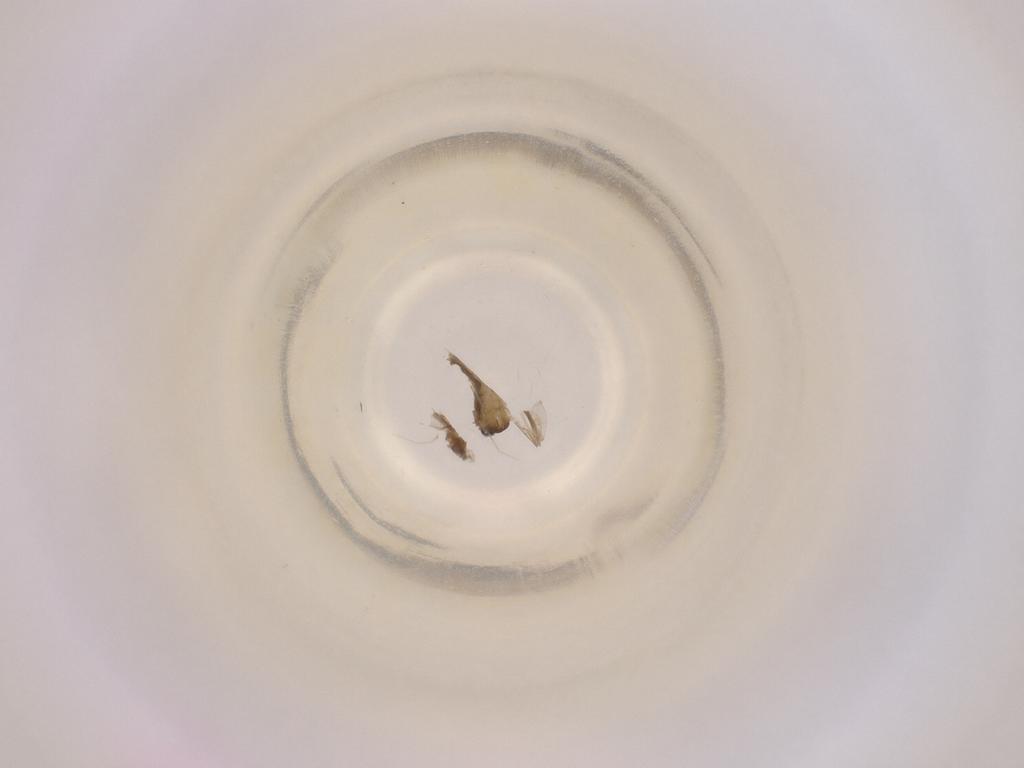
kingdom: Animalia
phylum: Arthropoda
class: Insecta
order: Diptera
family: Cecidomyiidae
